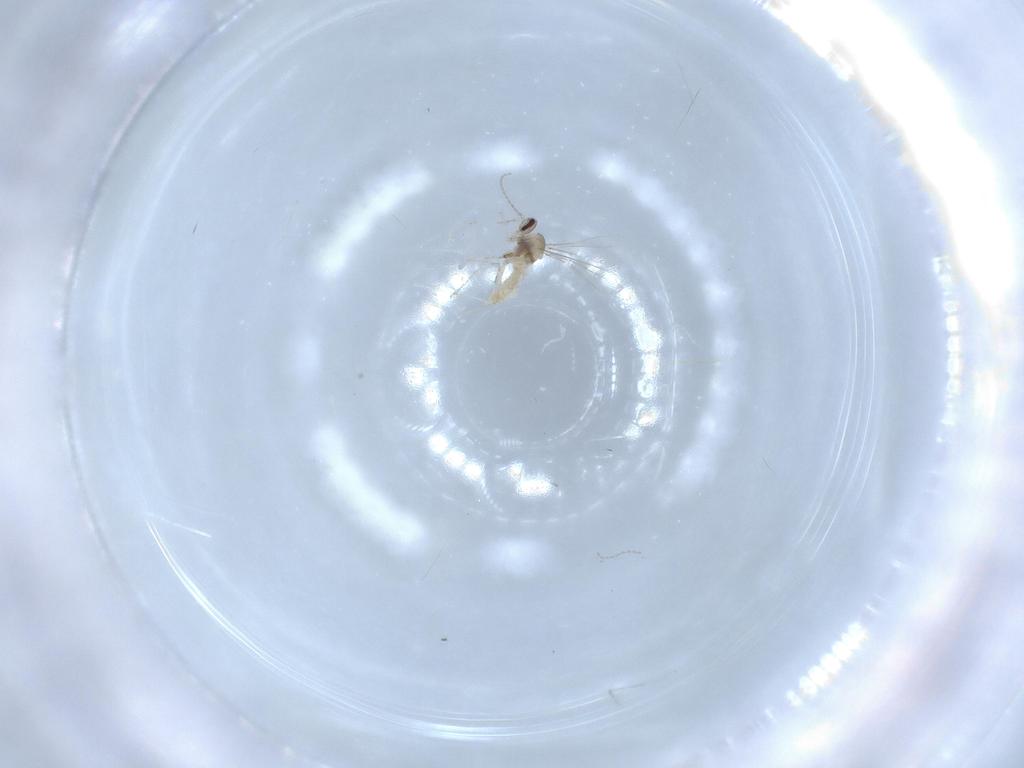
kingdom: Animalia
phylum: Arthropoda
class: Insecta
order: Diptera
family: Cecidomyiidae
